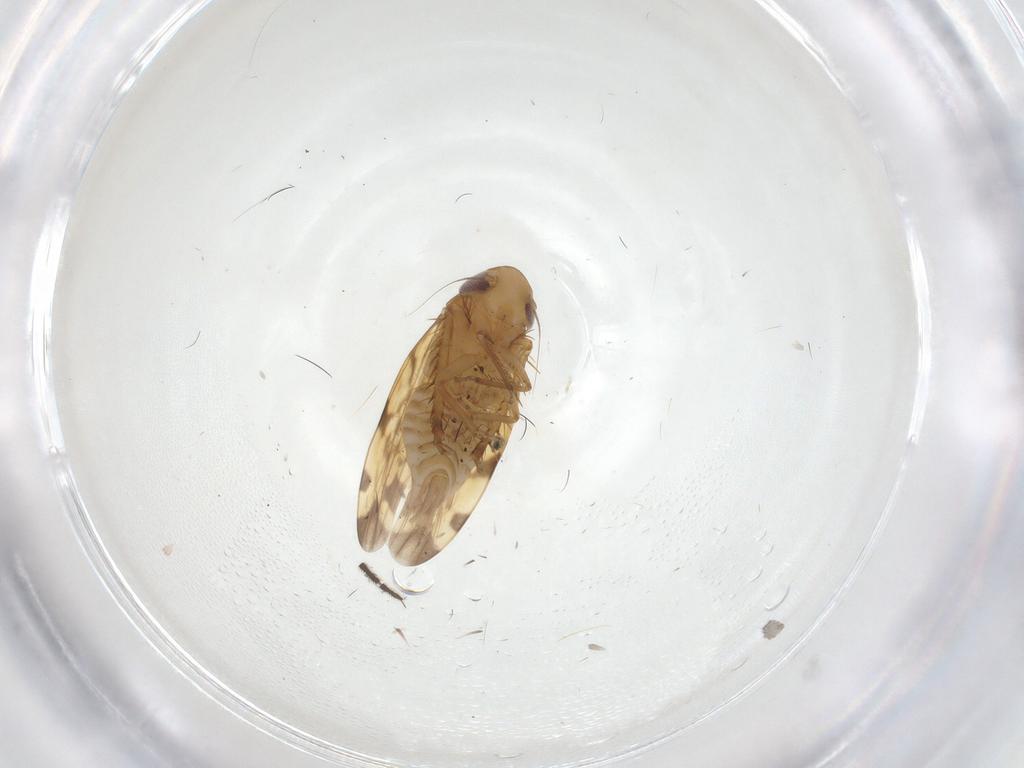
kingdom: Animalia
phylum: Arthropoda
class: Insecta
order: Hemiptera
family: Cicadellidae
